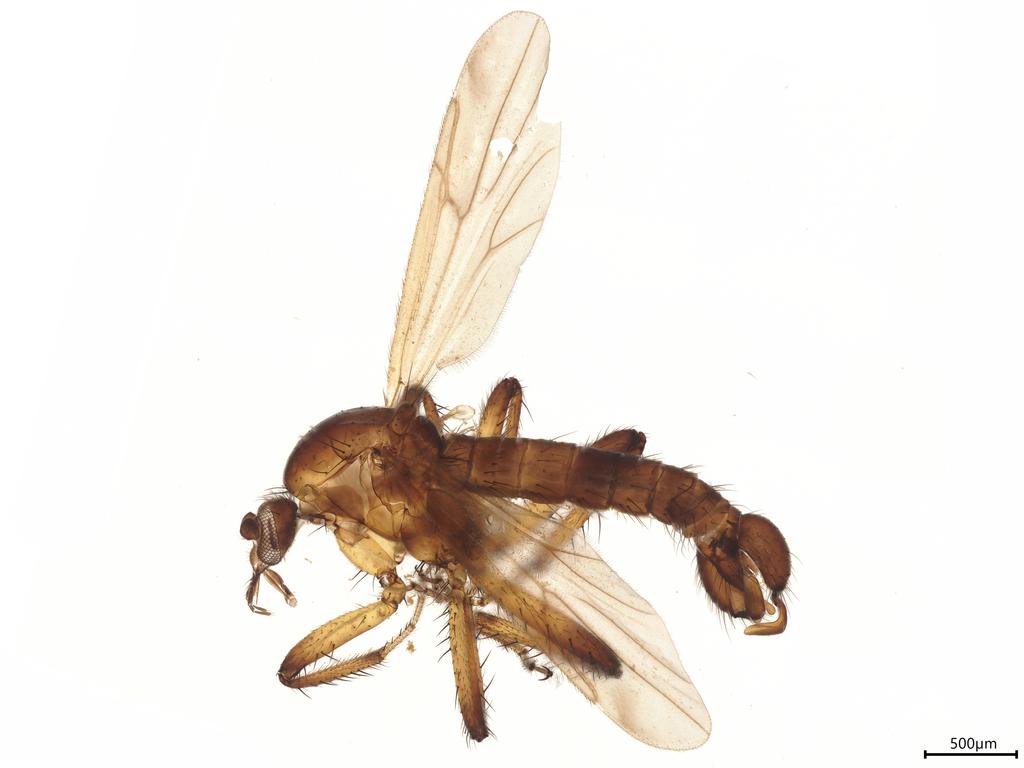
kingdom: Animalia
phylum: Arthropoda
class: Insecta
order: Diptera
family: Ceratopogonidae
